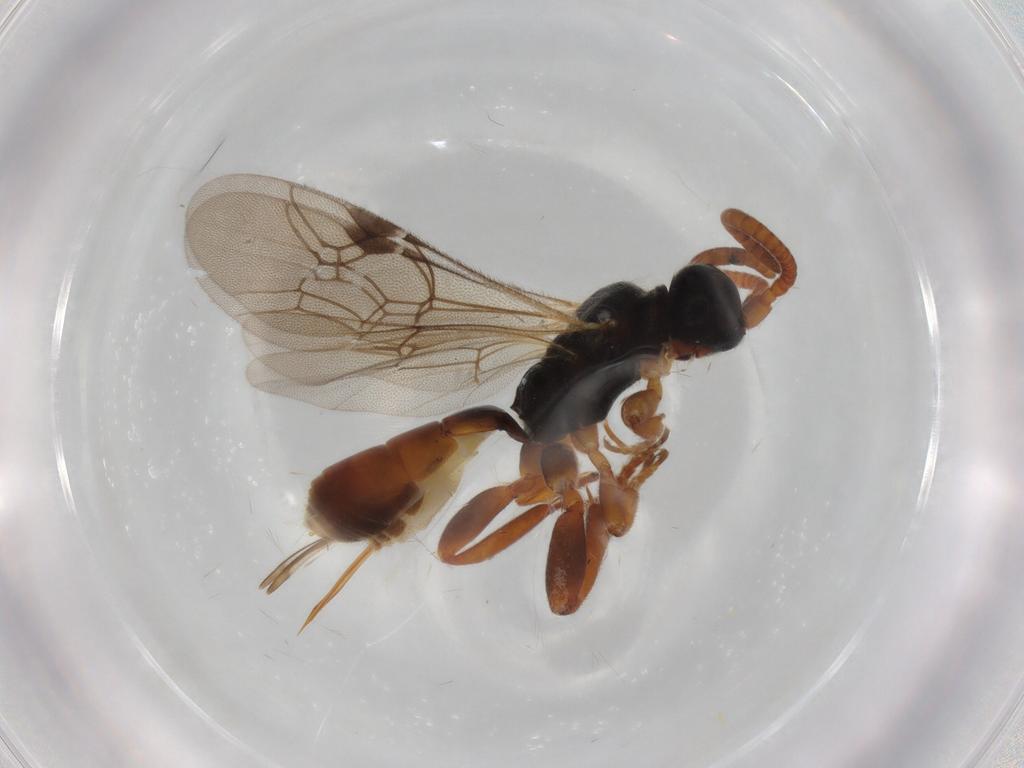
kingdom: Animalia
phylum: Arthropoda
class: Insecta
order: Hymenoptera
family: Ichneumonidae
